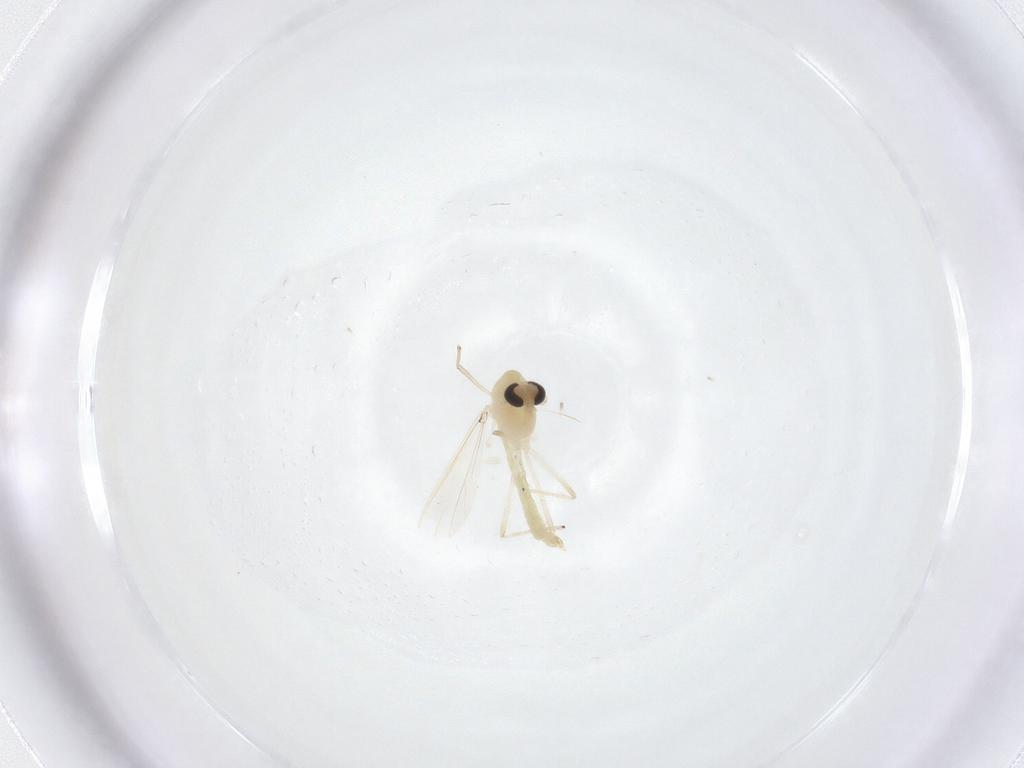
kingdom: Animalia
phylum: Arthropoda
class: Insecta
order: Diptera
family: Chironomidae
